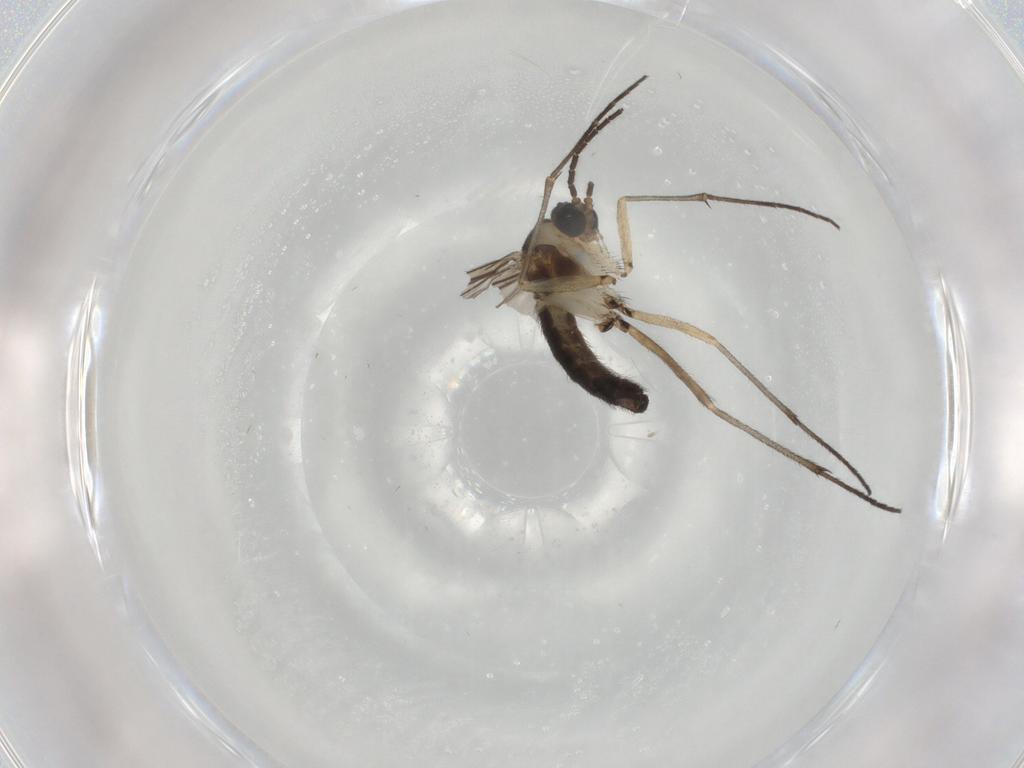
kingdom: Animalia
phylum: Arthropoda
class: Insecta
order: Diptera
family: Sciaridae
